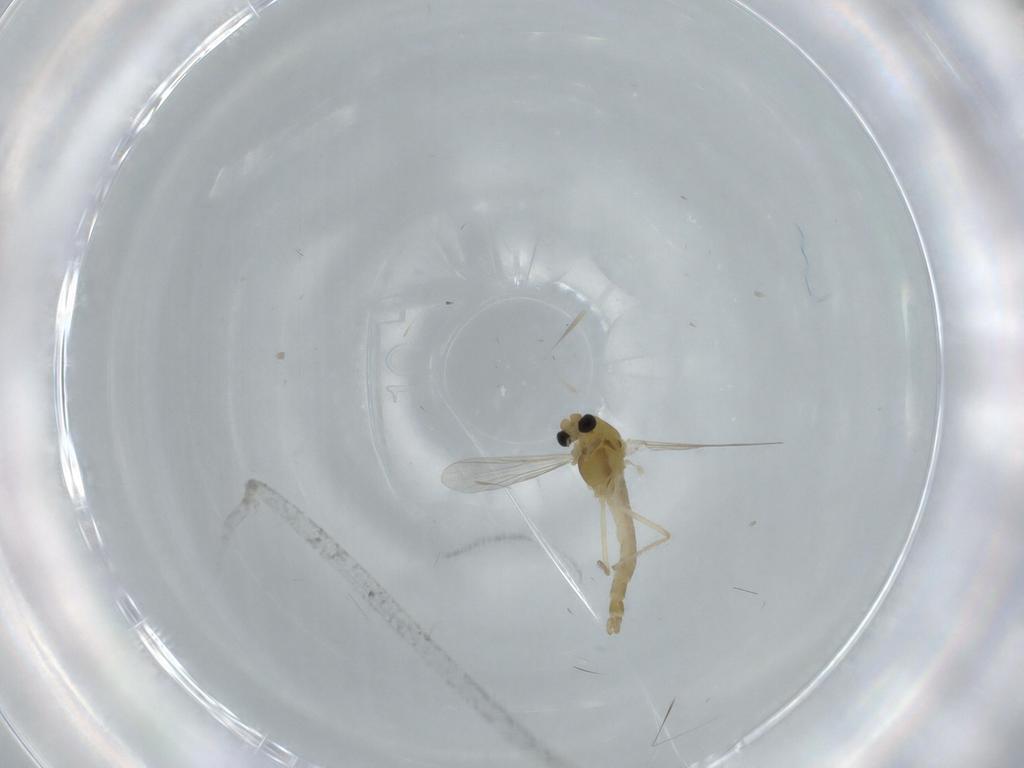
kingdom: Animalia
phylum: Arthropoda
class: Insecta
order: Diptera
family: Chironomidae
